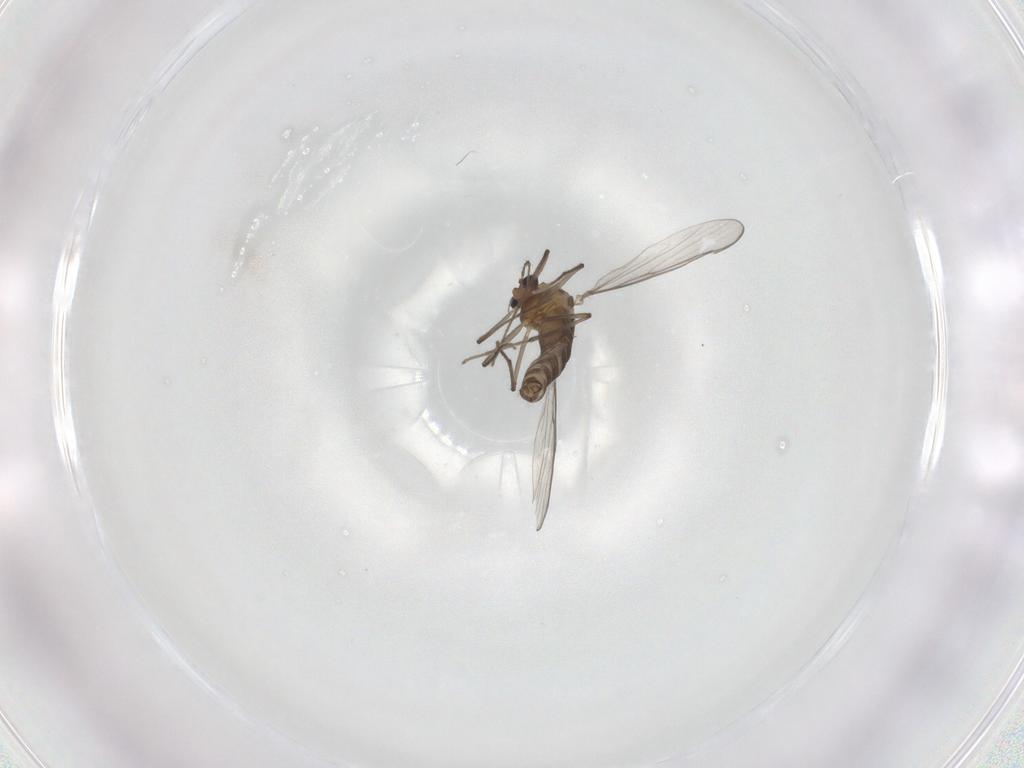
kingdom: Animalia
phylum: Arthropoda
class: Insecta
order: Diptera
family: Chironomidae
